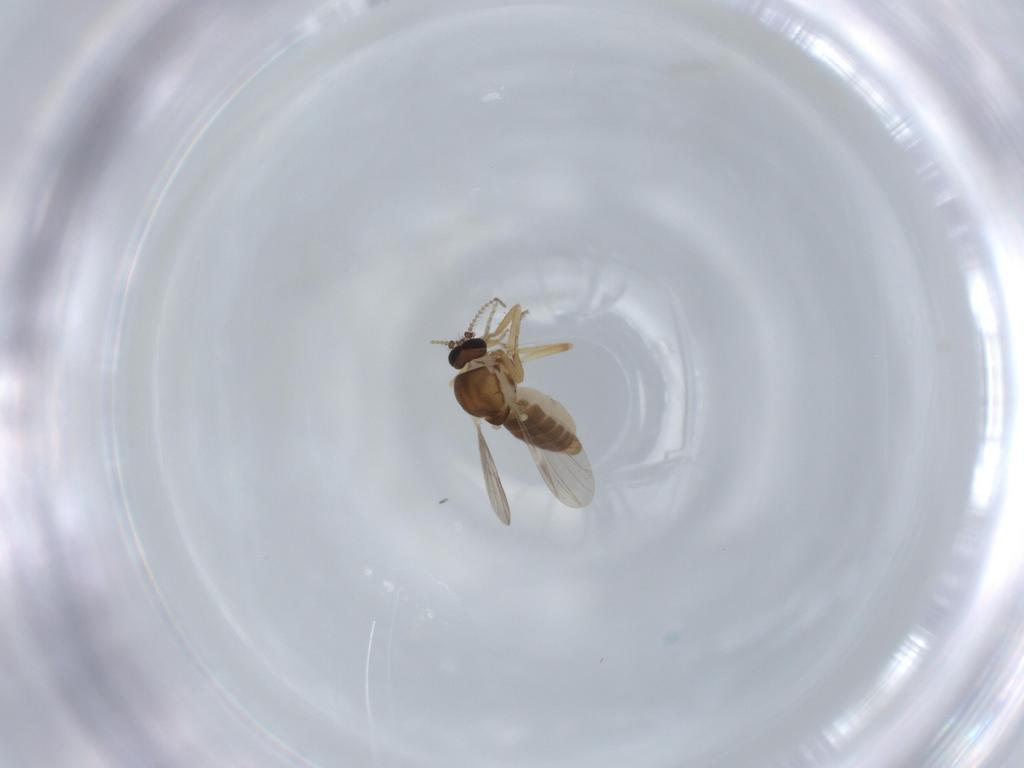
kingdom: Animalia
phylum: Arthropoda
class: Insecta
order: Diptera
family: Ceratopogonidae
